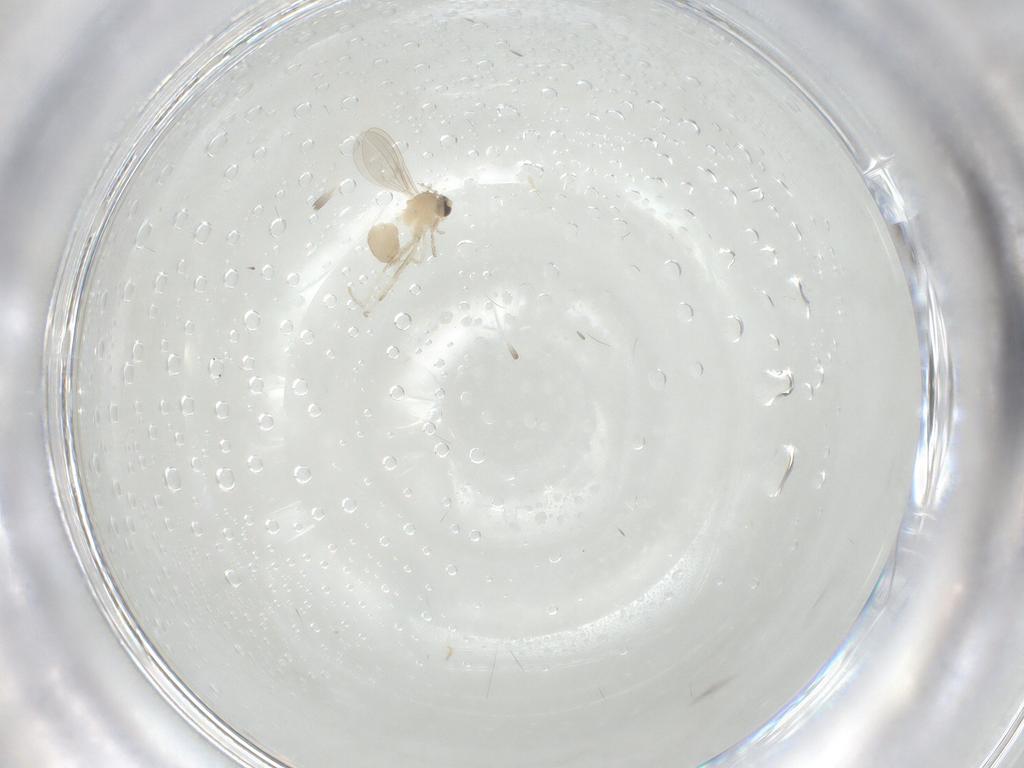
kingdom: Animalia
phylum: Arthropoda
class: Insecta
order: Diptera
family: Cecidomyiidae
